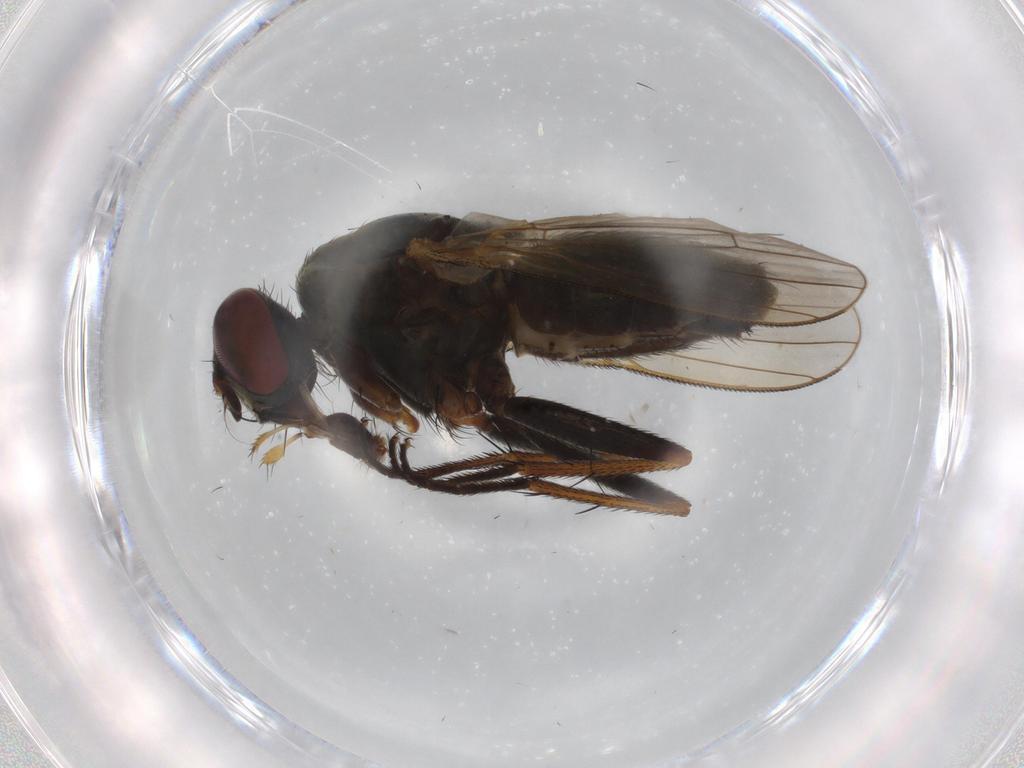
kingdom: Animalia
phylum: Arthropoda
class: Insecta
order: Diptera
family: Muscidae
